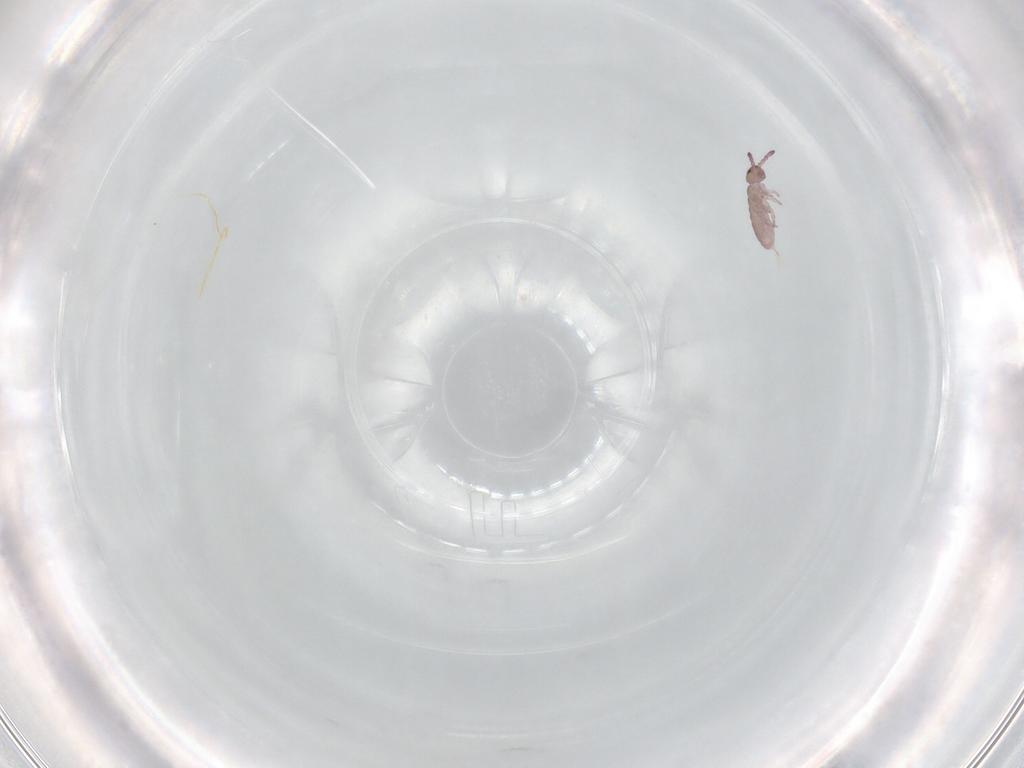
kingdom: Animalia
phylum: Arthropoda
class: Collembola
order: Entomobryomorpha
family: Isotomidae
